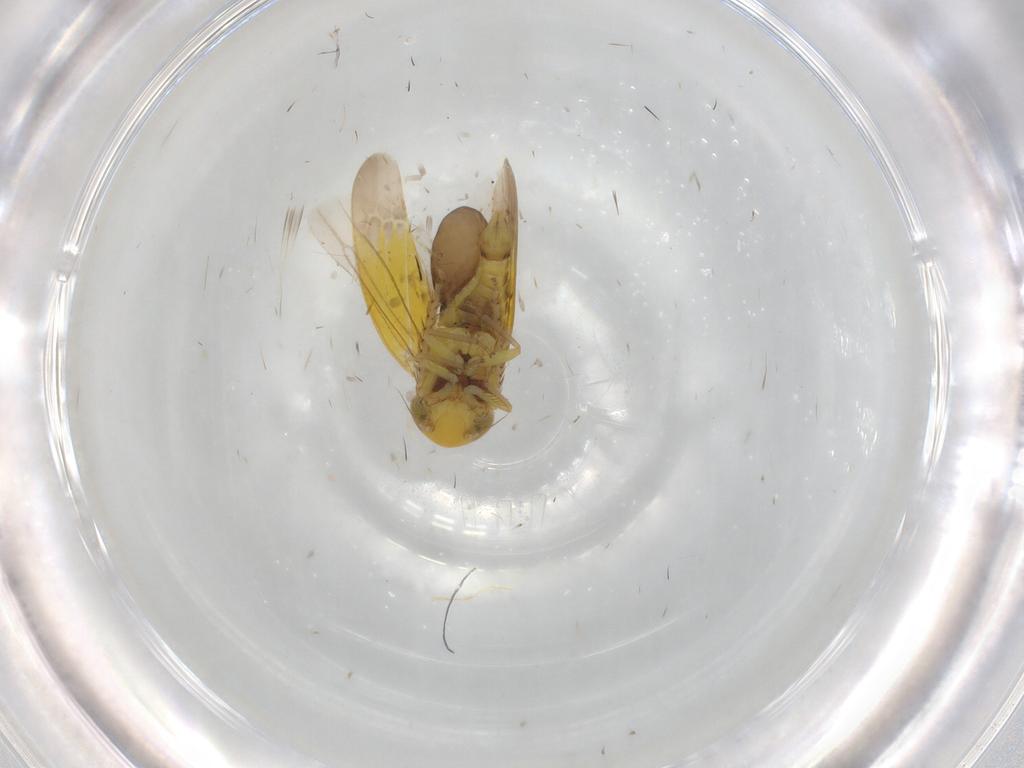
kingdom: Animalia
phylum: Arthropoda
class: Insecta
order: Hemiptera
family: Cicadellidae
